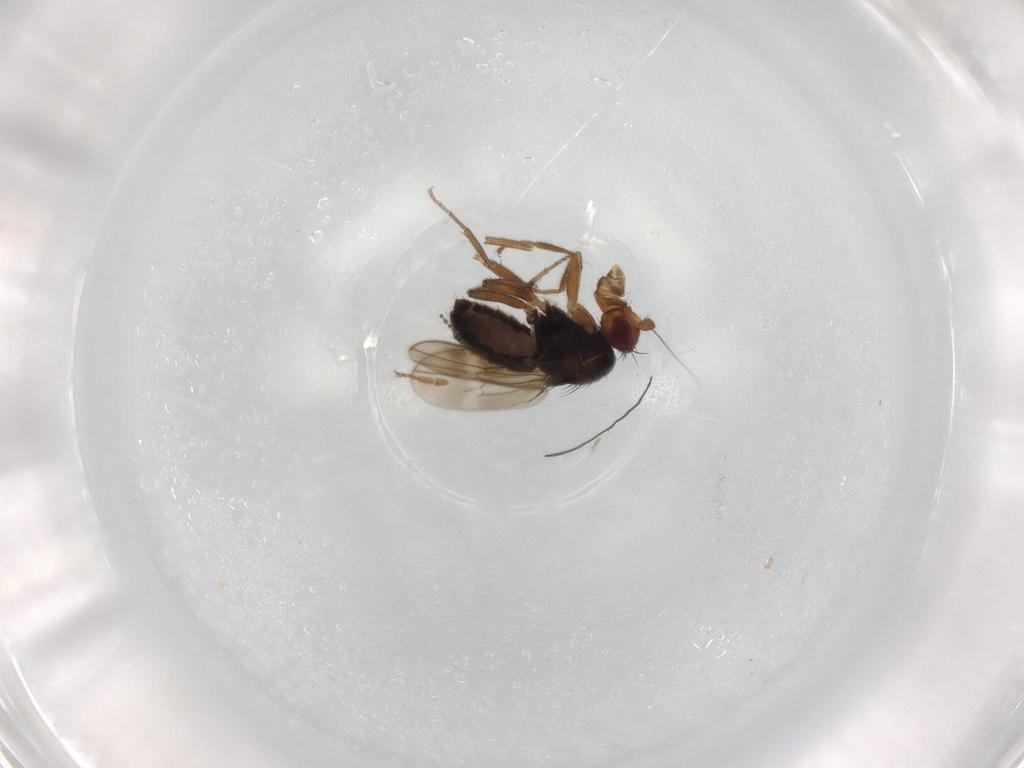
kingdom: Animalia
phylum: Arthropoda
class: Insecta
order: Diptera
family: Sphaeroceridae
